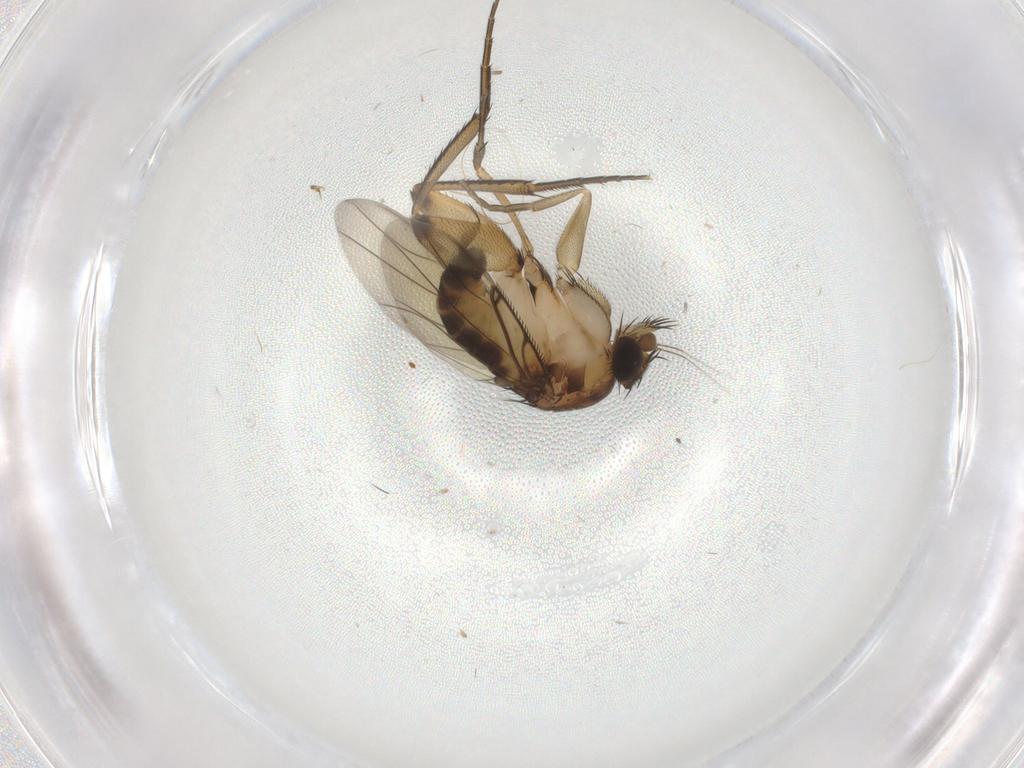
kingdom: Animalia
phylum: Arthropoda
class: Insecta
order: Diptera
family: Phoridae
